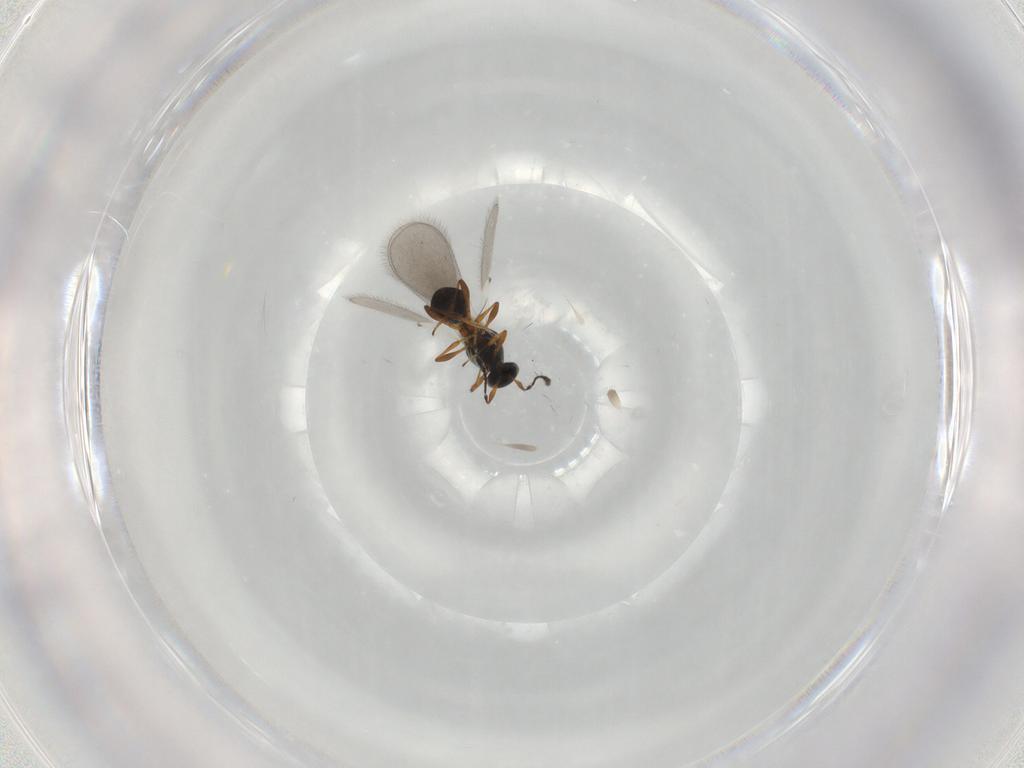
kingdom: Animalia
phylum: Arthropoda
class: Insecta
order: Hymenoptera
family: Platygastridae
